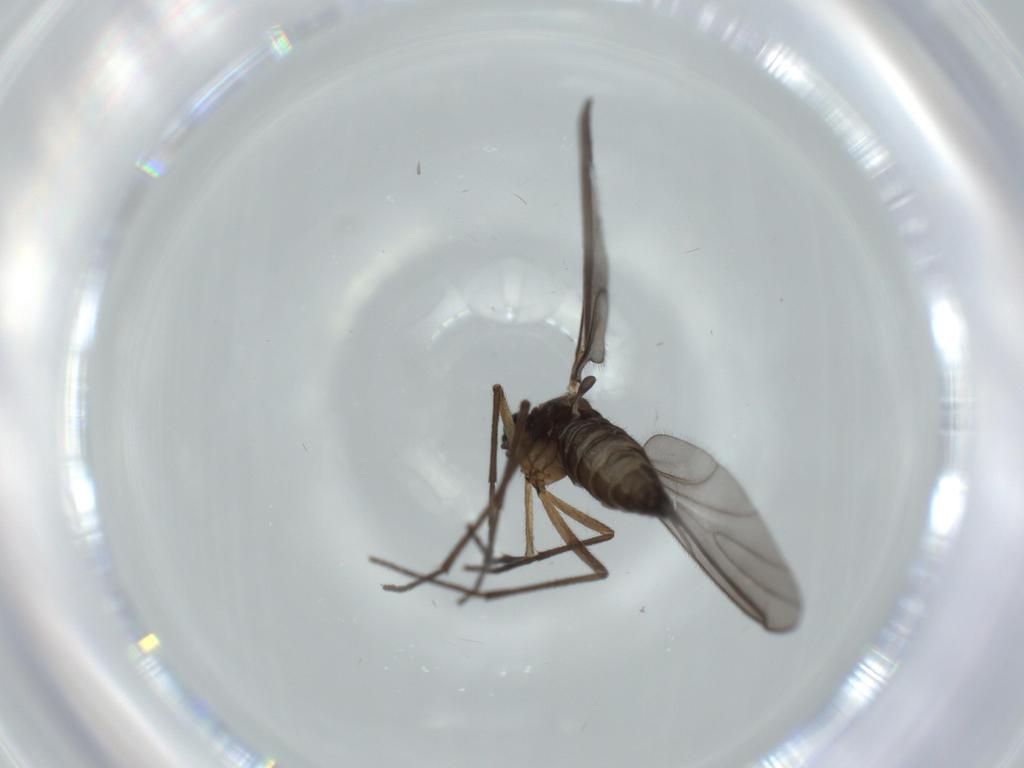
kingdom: Animalia
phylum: Arthropoda
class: Insecta
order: Diptera
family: Sciaridae
